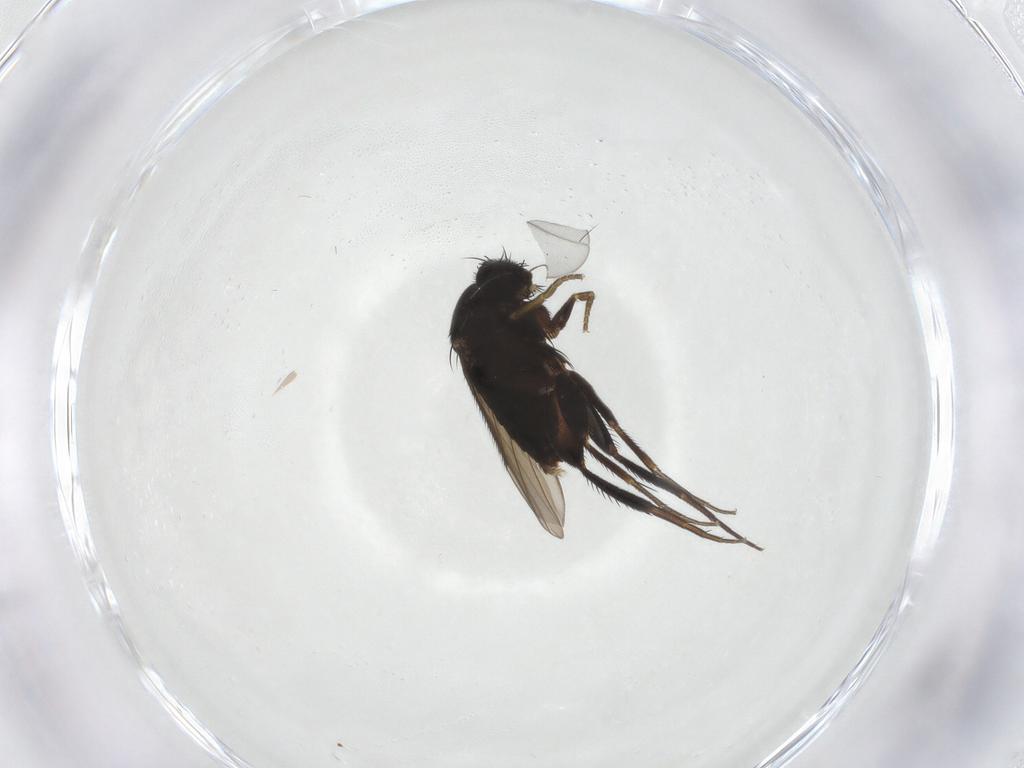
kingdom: Animalia
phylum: Arthropoda
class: Insecta
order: Diptera
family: Phoridae
